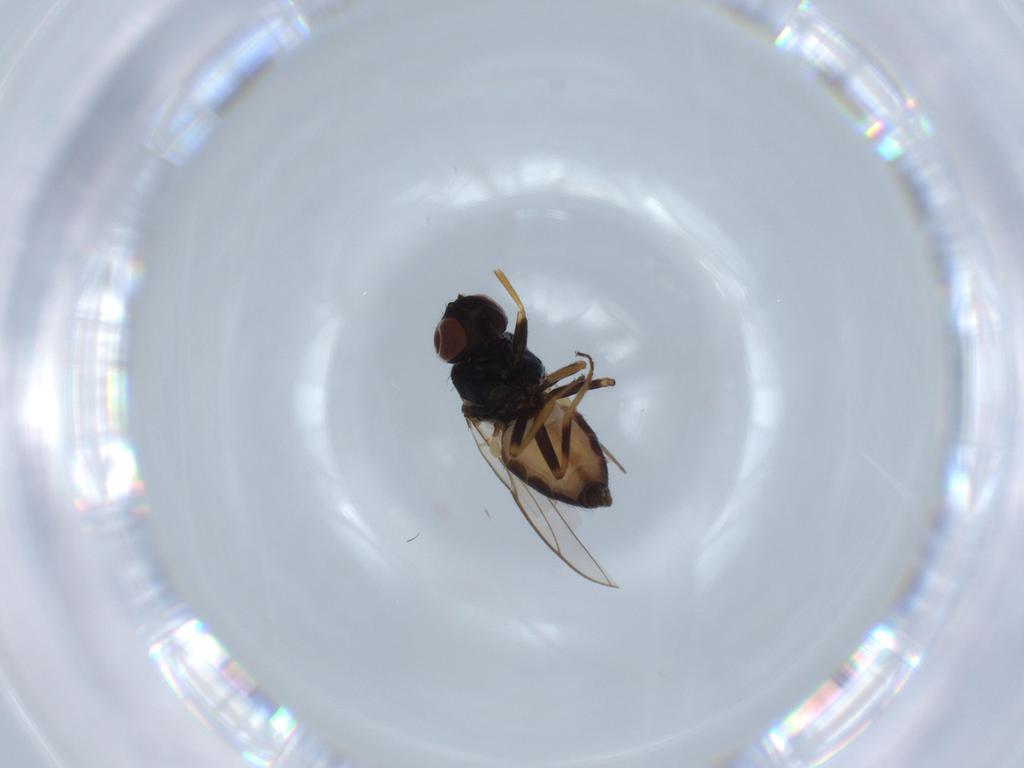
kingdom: Animalia
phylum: Arthropoda
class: Insecta
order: Diptera
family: Chloropidae
